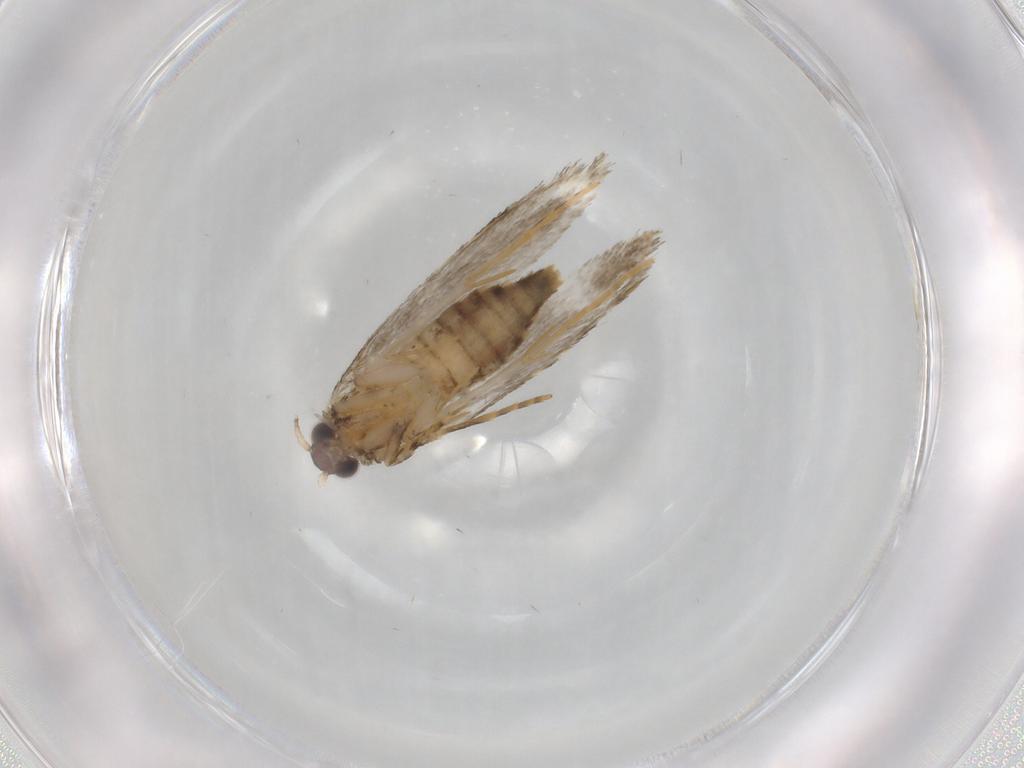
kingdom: Animalia
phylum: Arthropoda
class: Insecta
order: Lepidoptera
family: Tineidae
